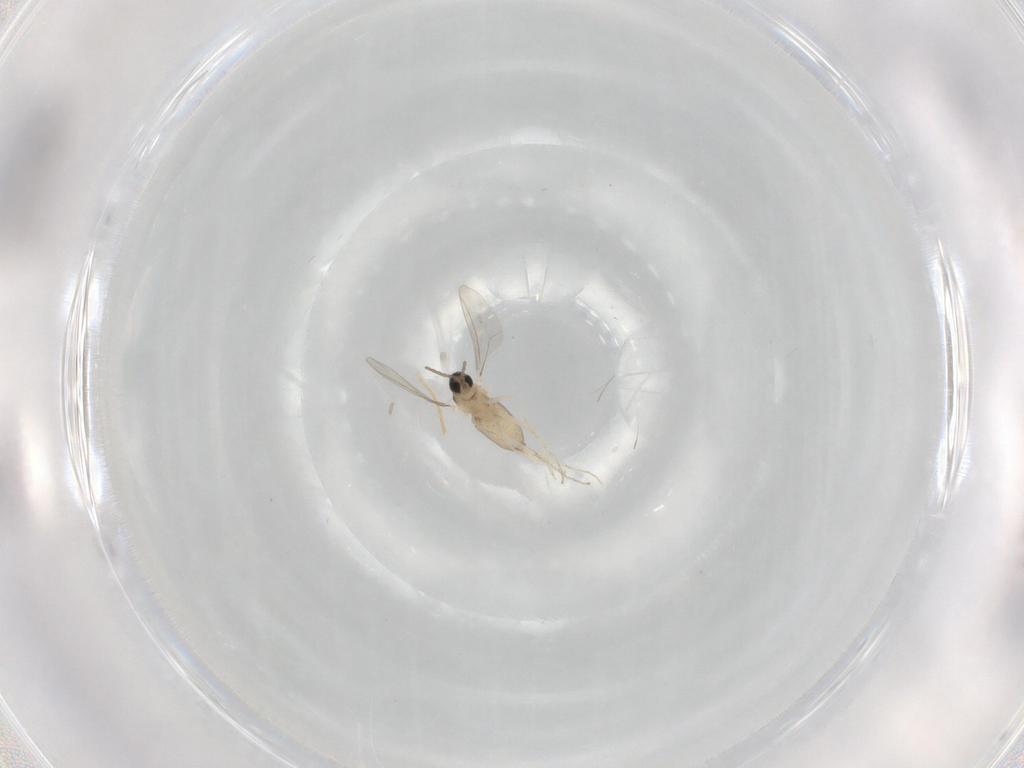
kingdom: Animalia
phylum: Arthropoda
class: Insecta
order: Diptera
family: Cecidomyiidae
